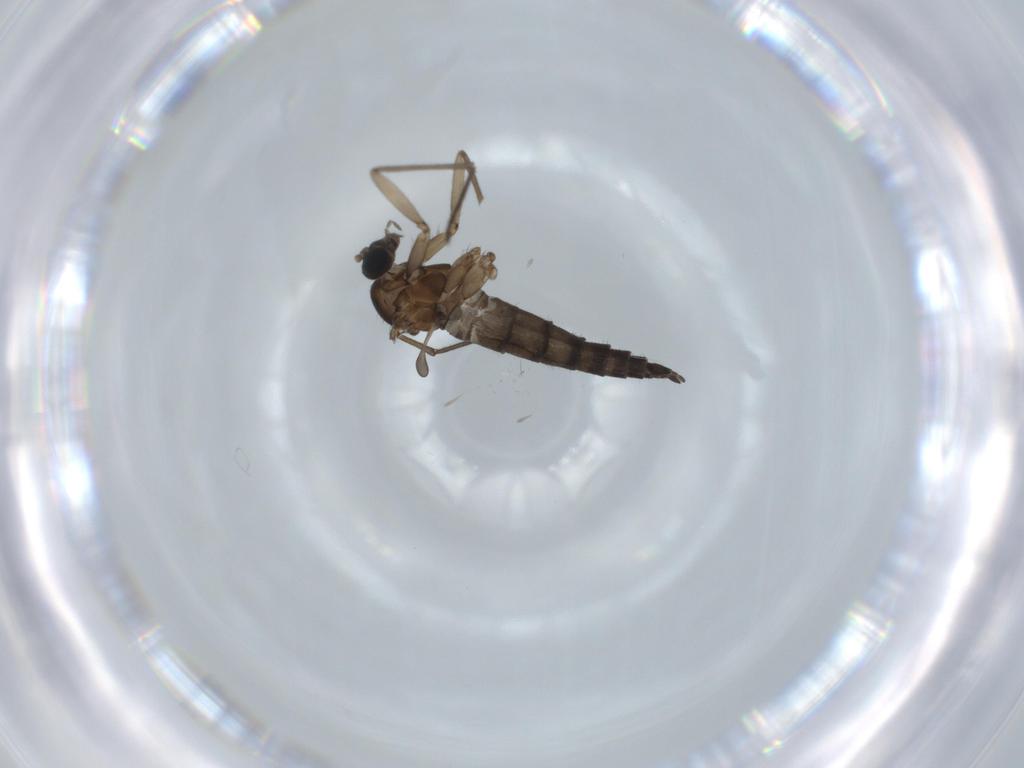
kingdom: Animalia
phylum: Arthropoda
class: Insecta
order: Diptera
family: Sciaridae
